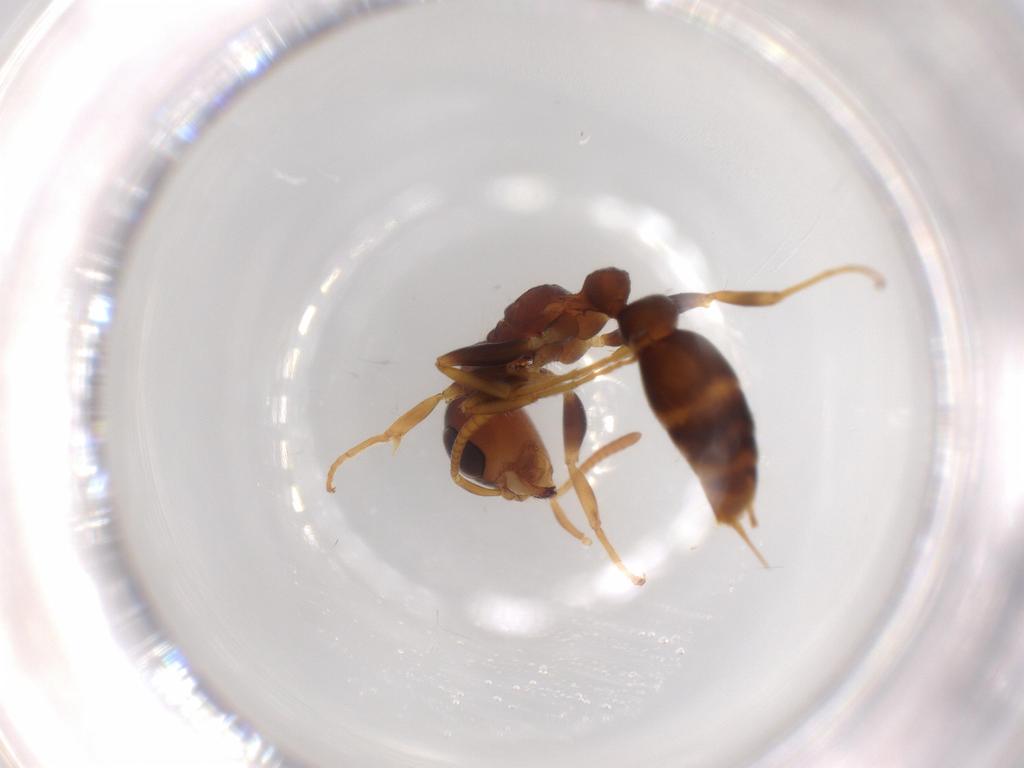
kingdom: Animalia
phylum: Arthropoda
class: Insecta
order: Hymenoptera
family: Formicidae
